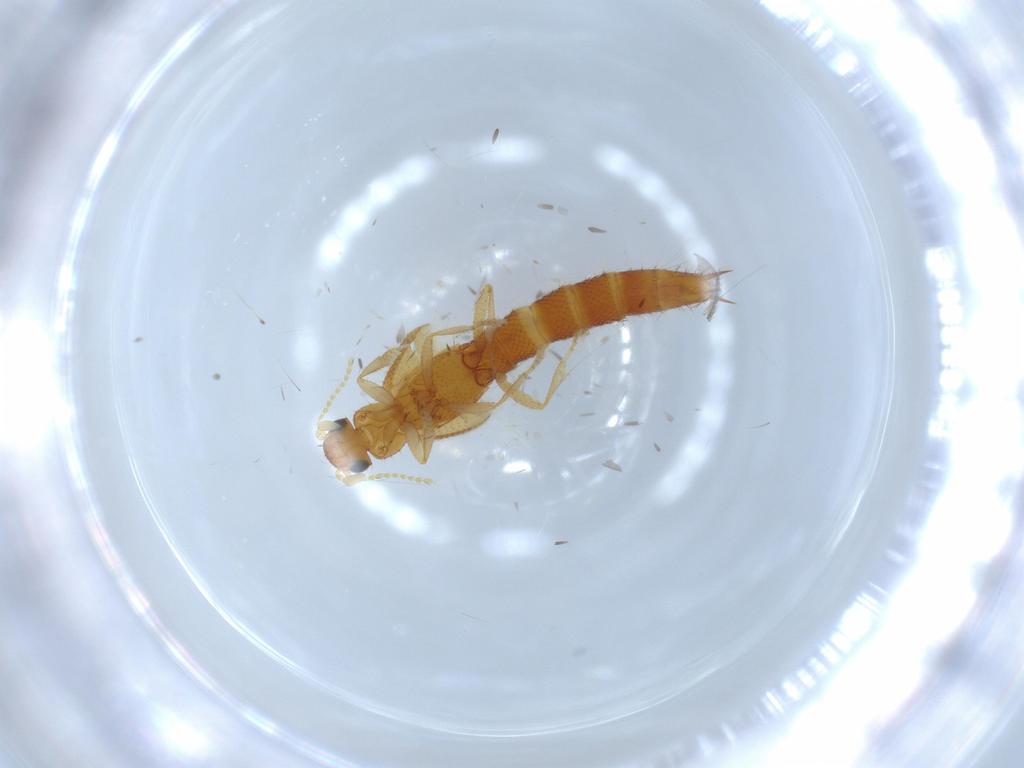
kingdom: Animalia
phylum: Arthropoda
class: Insecta
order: Coleoptera
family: Staphylinidae
